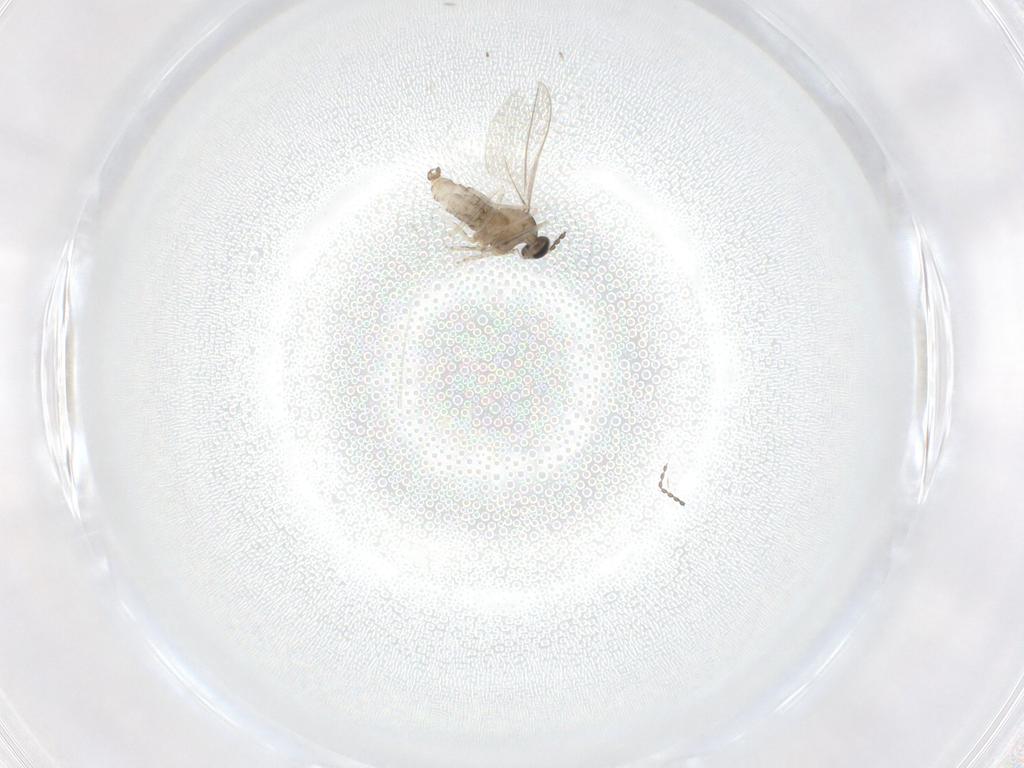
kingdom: Animalia
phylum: Arthropoda
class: Insecta
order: Diptera
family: Cecidomyiidae
